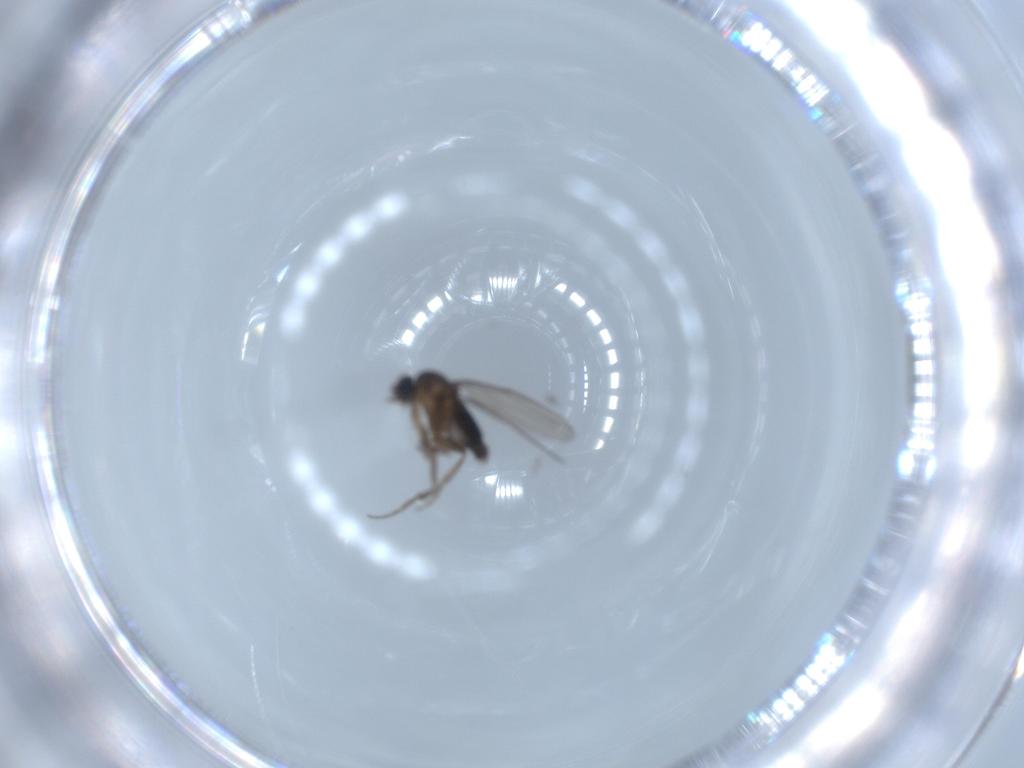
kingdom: Animalia
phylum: Arthropoda
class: Insecta
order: Diptera
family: Phoridae
